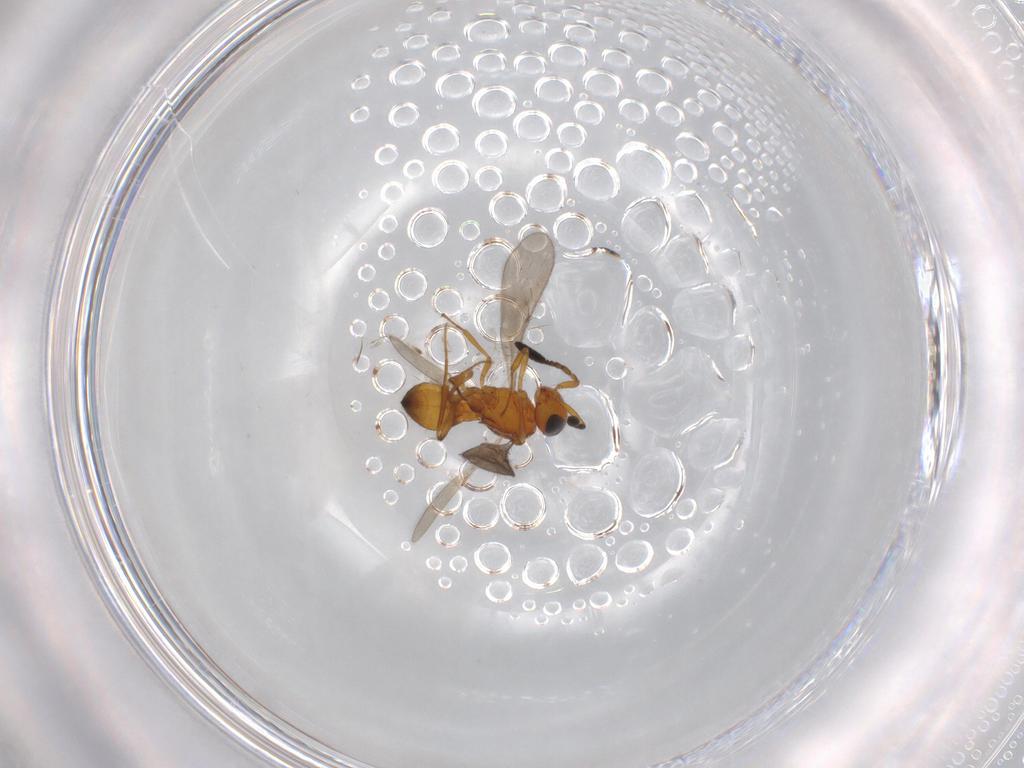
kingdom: Animalia
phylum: Arthropoda
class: Insecta
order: Hymenoptera
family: Scelionidae
